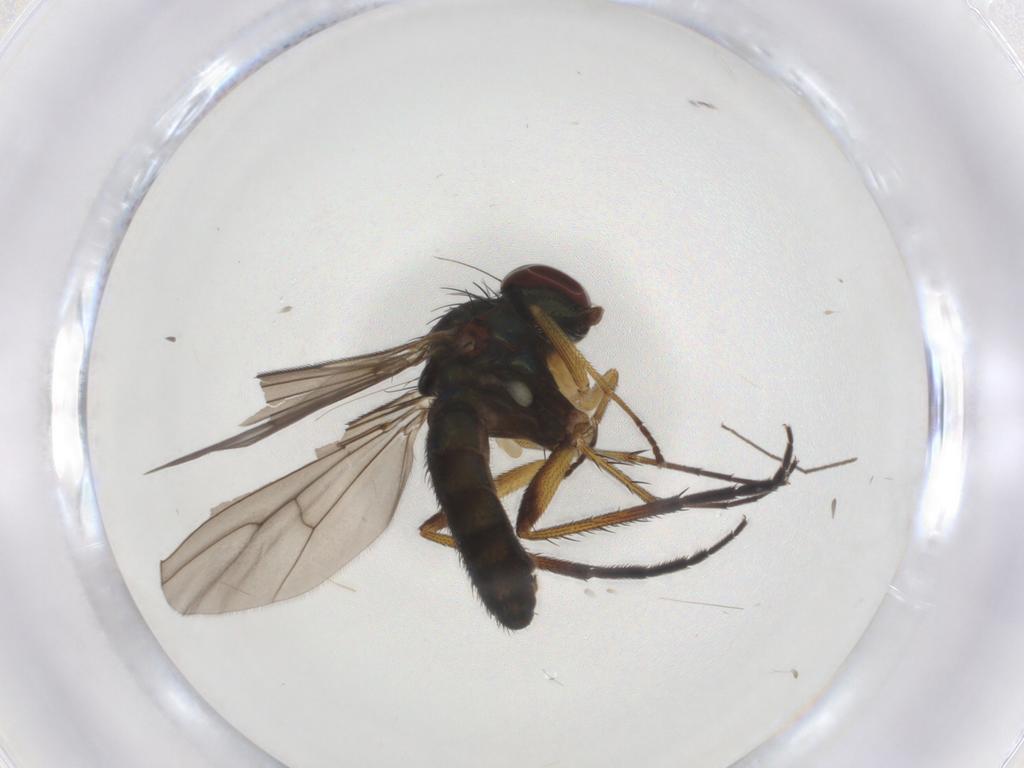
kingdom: Animalia
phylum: Arthropoda
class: Insecta
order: Diptera
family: Dolichopodidae
